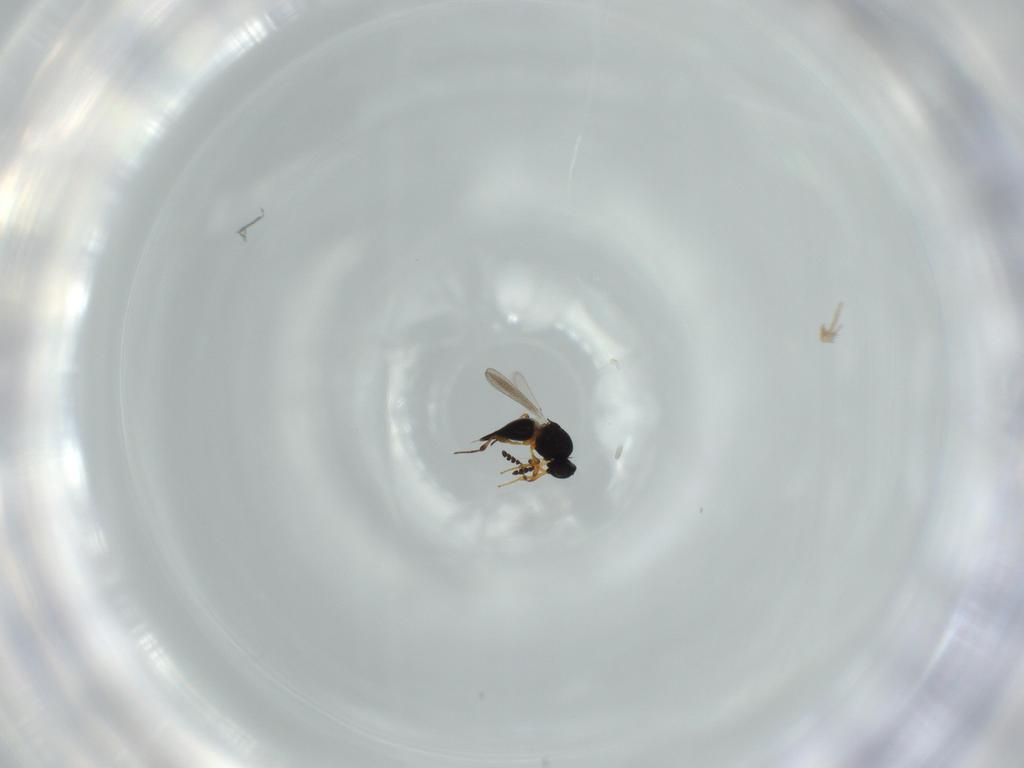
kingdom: Animalia
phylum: Arthropoda
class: Insecta
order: Hymenoptera
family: Platygastridae
